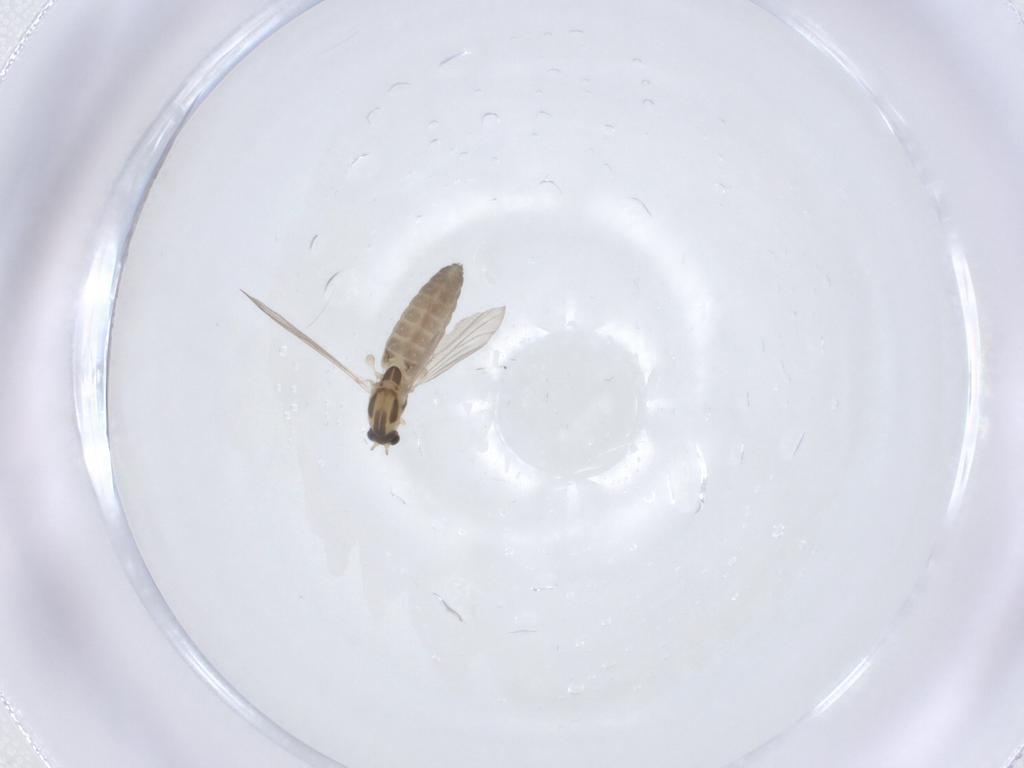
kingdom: Animalia
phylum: Arthropoda
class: Insecta
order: Diptera
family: Chironomidae
